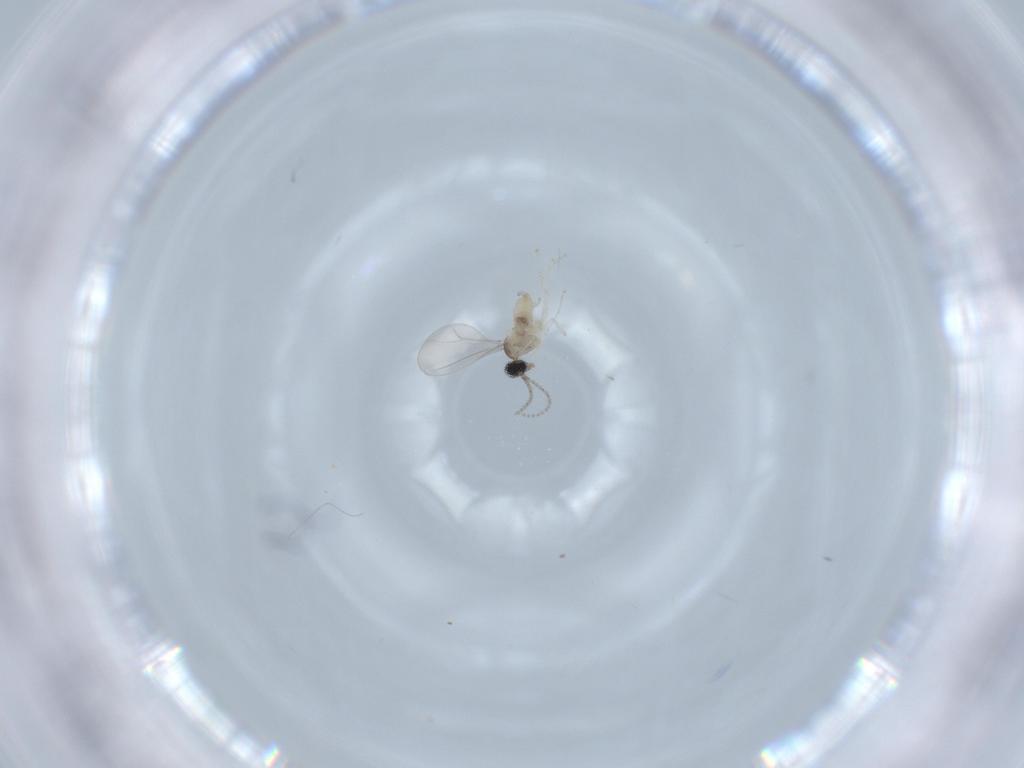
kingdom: Animalia
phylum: Arthropoda
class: Insecta
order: Diptera
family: Cecidomyiidae
